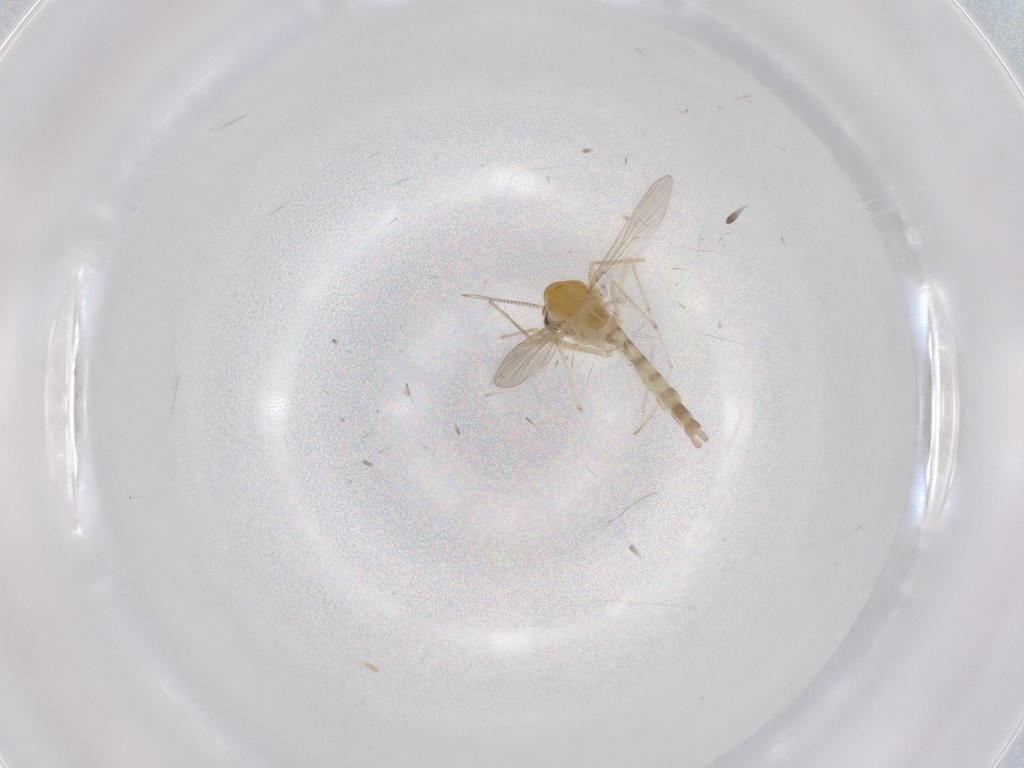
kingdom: Animalia
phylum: Arthropoda
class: Insecta
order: Diptera
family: Chironomidae
